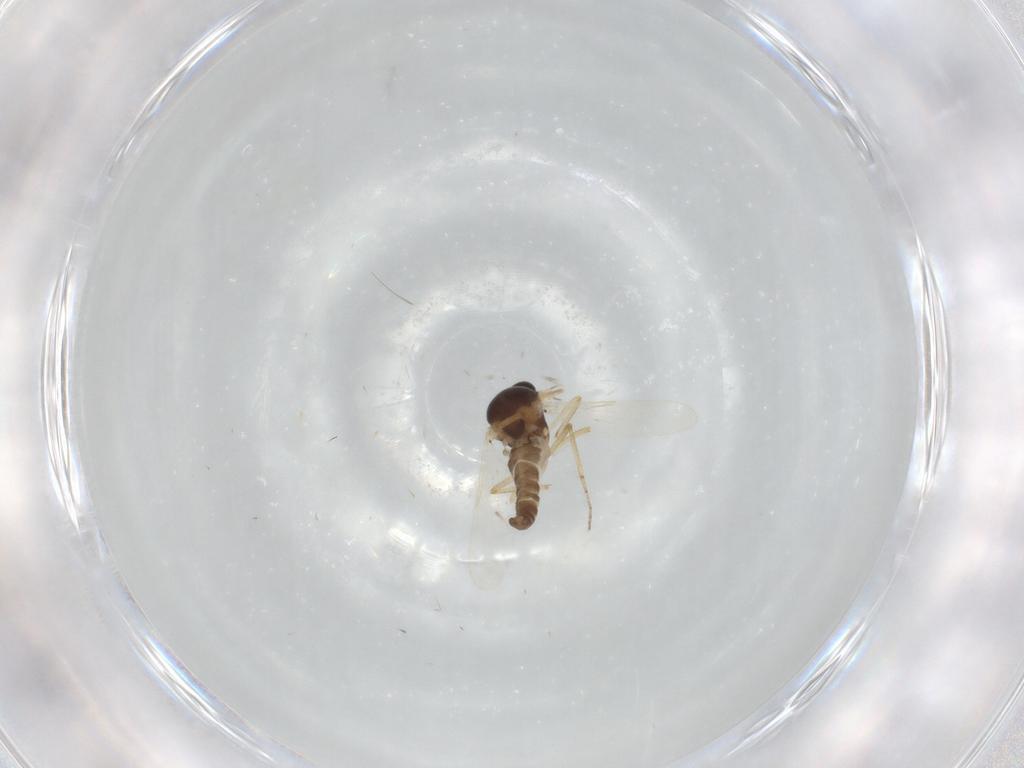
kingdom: Animalia
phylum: Arthropoda
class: Insecta
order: Diptera
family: Ceratopogonidae
